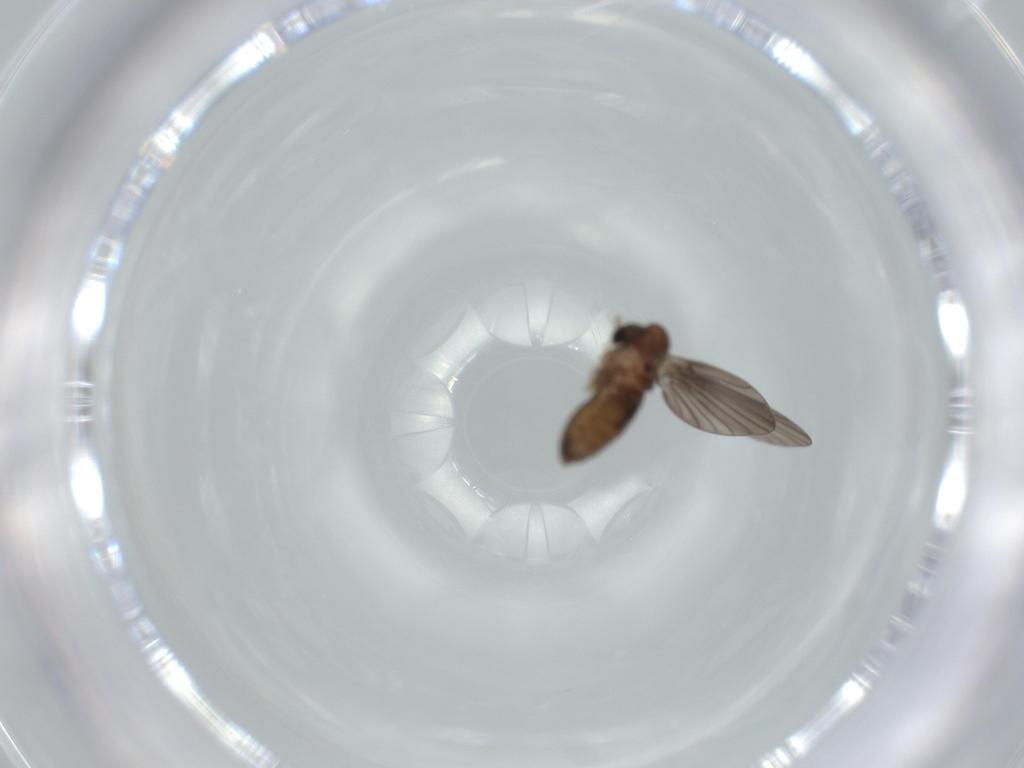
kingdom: Animalia
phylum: Arthropoda
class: Insecta
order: Diptera
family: Psychodidae
